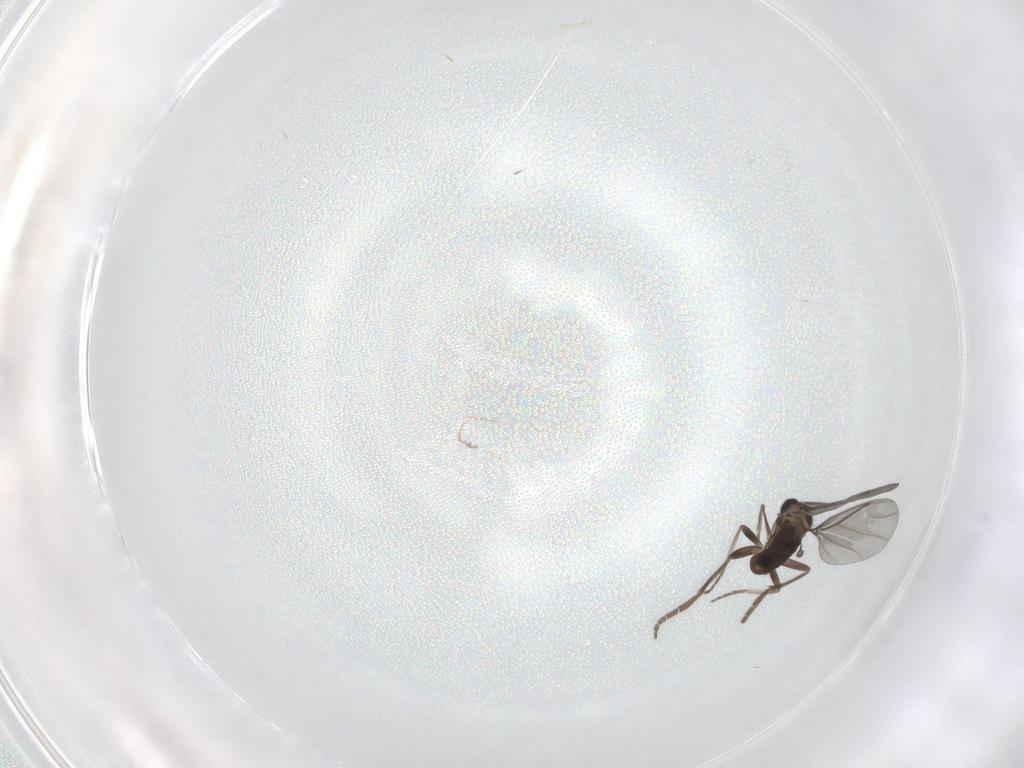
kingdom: Animalia
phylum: Arthropoda
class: Insecta
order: Diptera
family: Phoridae
